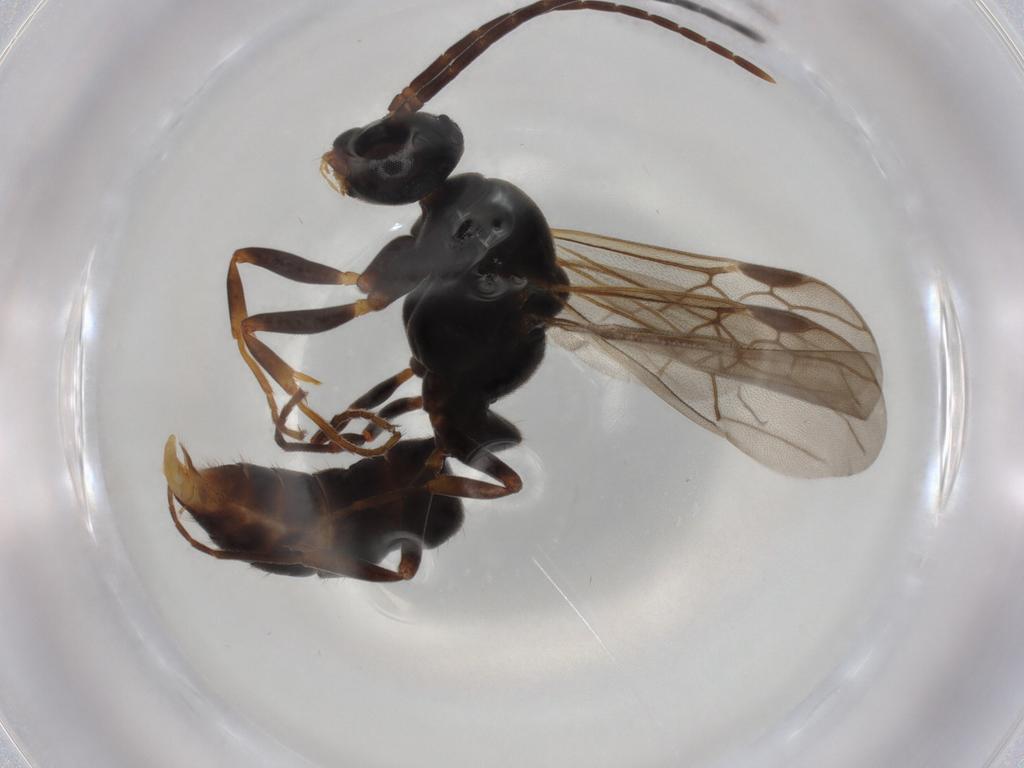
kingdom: Animalia
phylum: Arthropoda
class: Insecta
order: Hymenoptera
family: Formicidae
